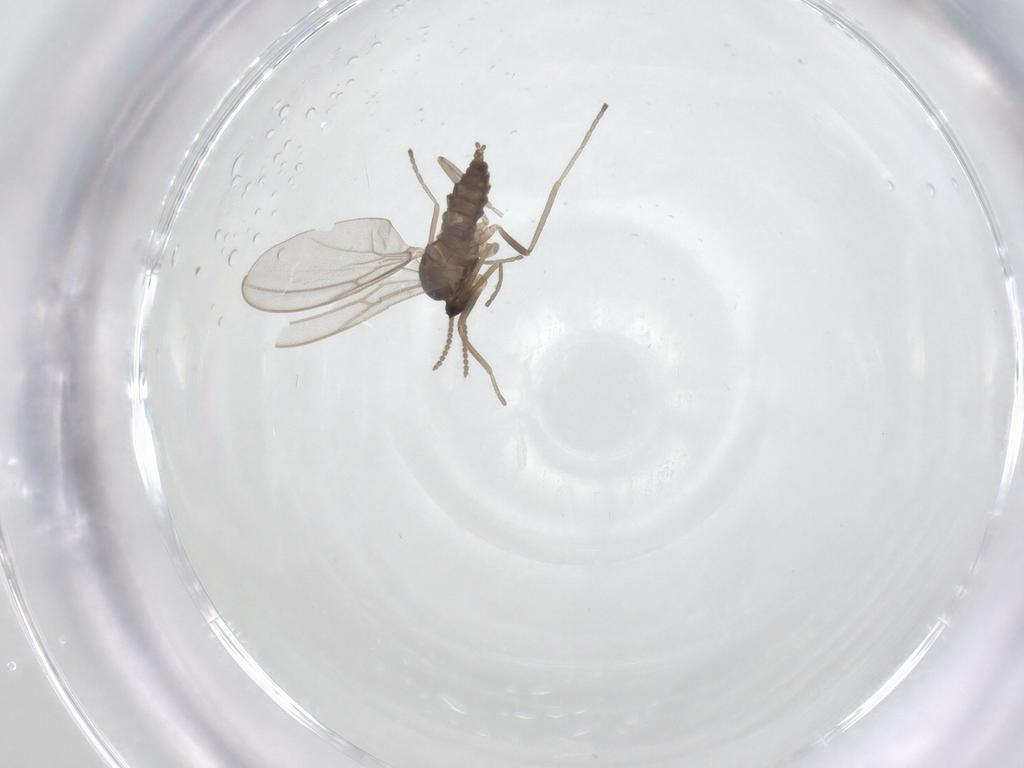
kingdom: Animalia
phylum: Arthropoda
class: Insecta
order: Diptera
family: Cecidomyiidae
